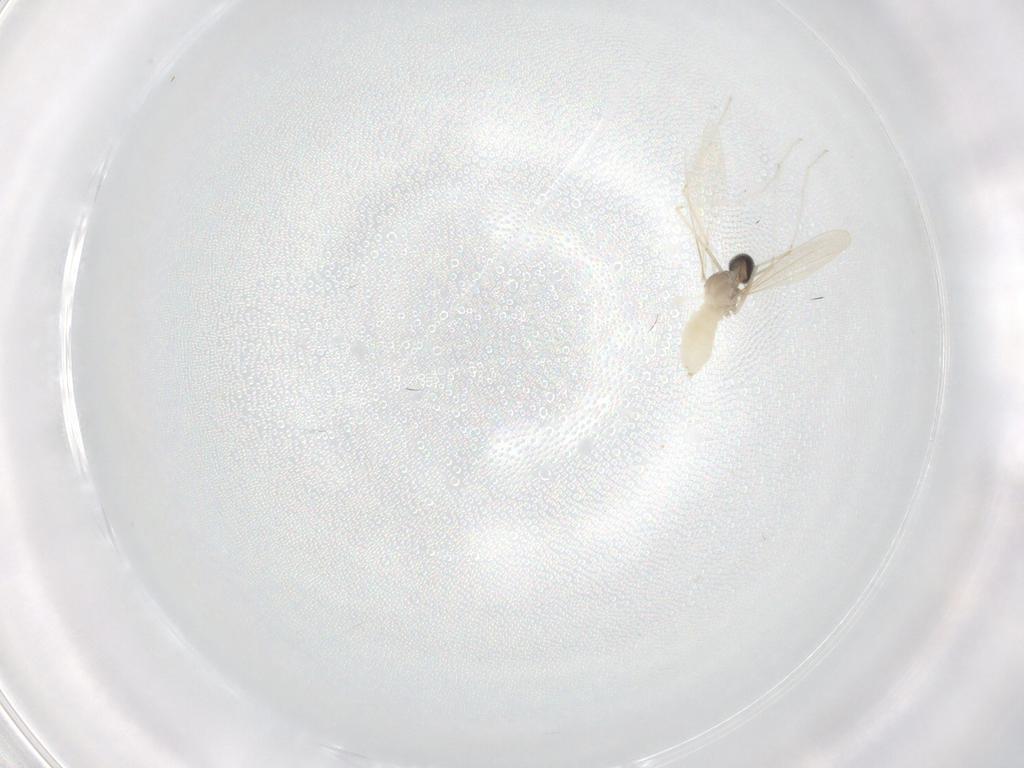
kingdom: Animalia
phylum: Arthropoda
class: Insecta
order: Diptera
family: Cecidomyiidae
